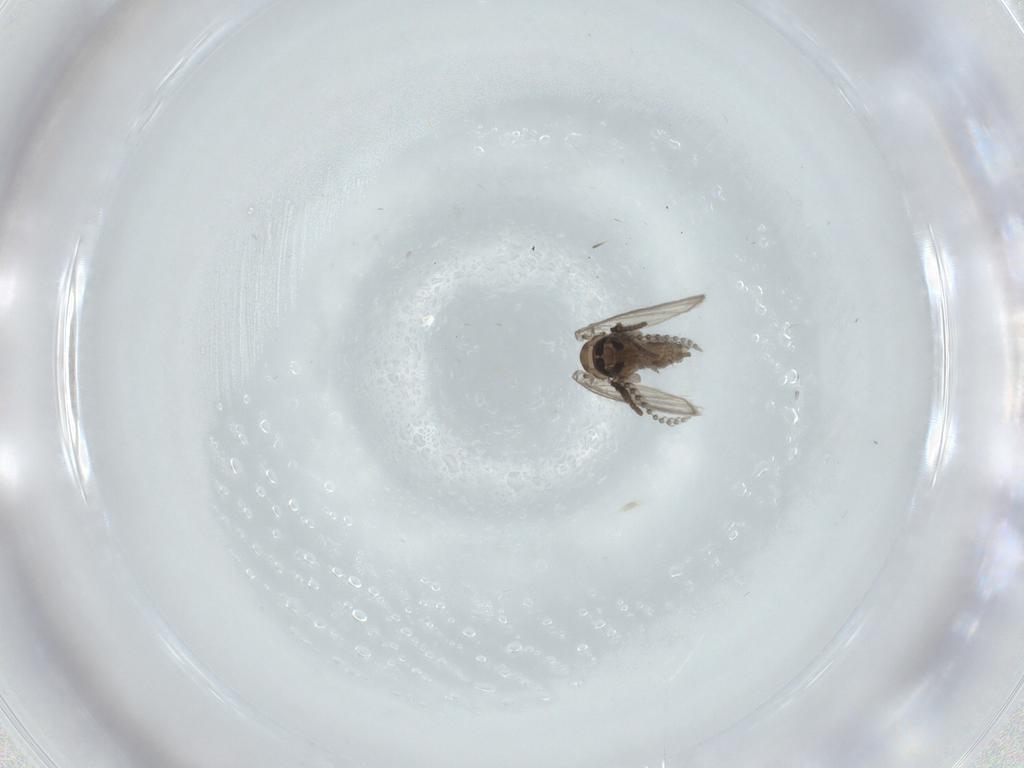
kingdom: Animalia
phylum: Arthropoda
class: Insecta
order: Diptera
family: Psychodidae
